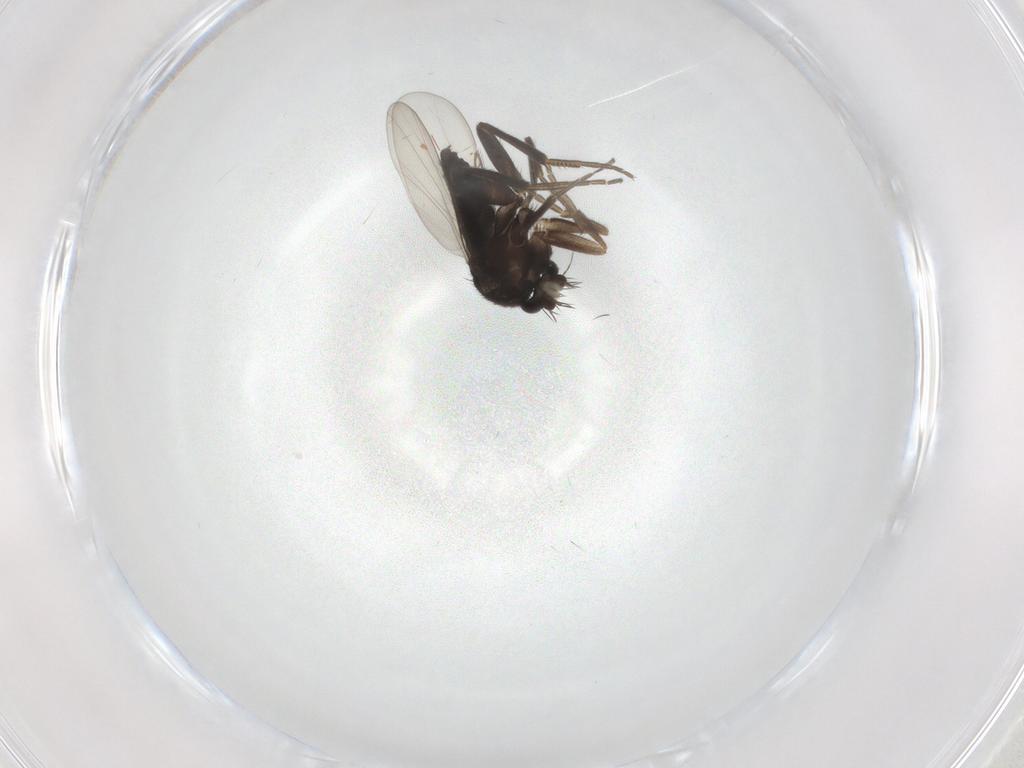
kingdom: Animalia
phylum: Arthropoda
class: Insecta
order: Diptera
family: Phoridae
